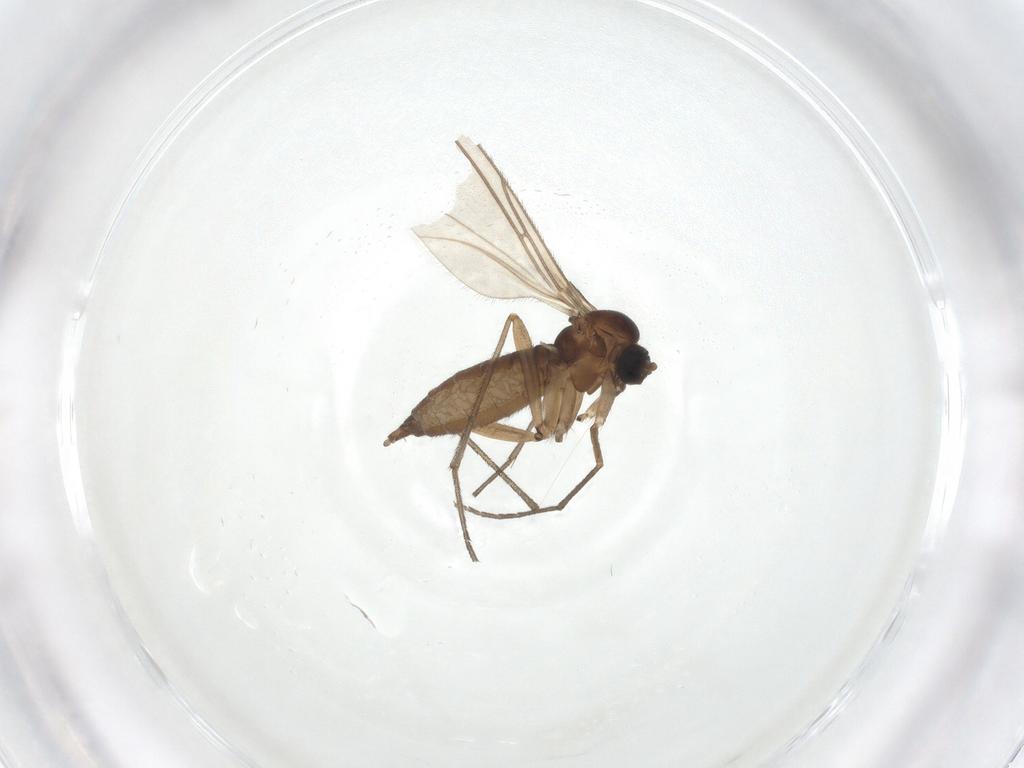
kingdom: Animalia
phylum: Arthropoda
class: Insecta
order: Diptera
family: Sciaridae
